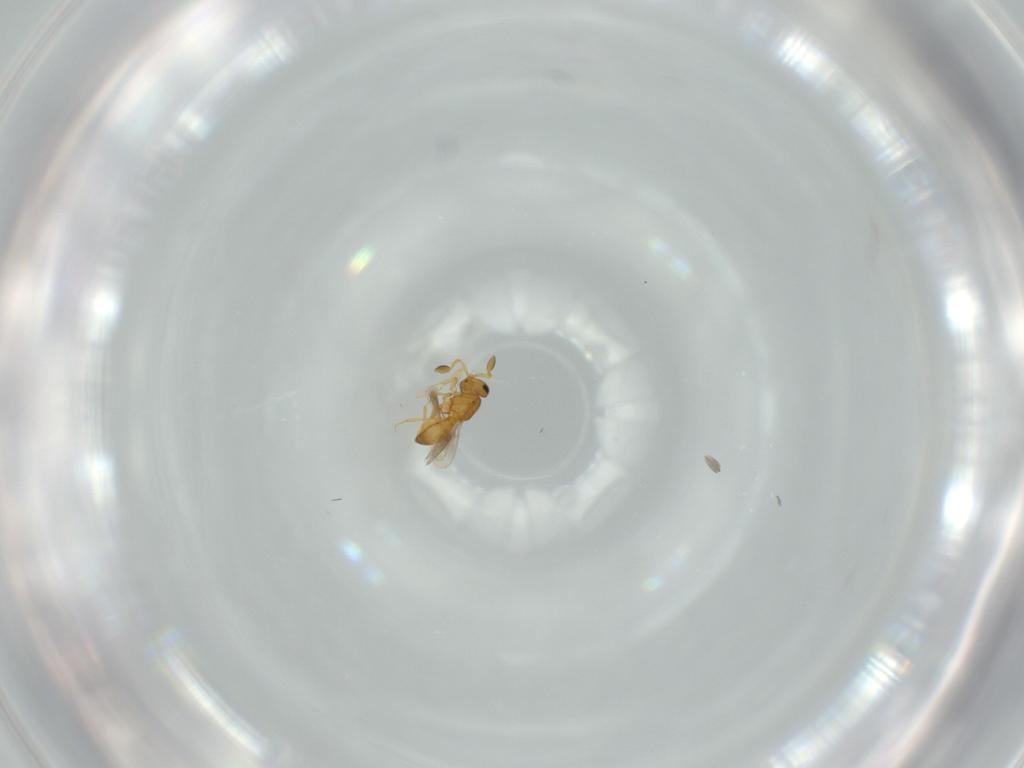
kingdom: Animalia
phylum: Arthropoda
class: Insecta
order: Hymenoptera
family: Scelionidae
